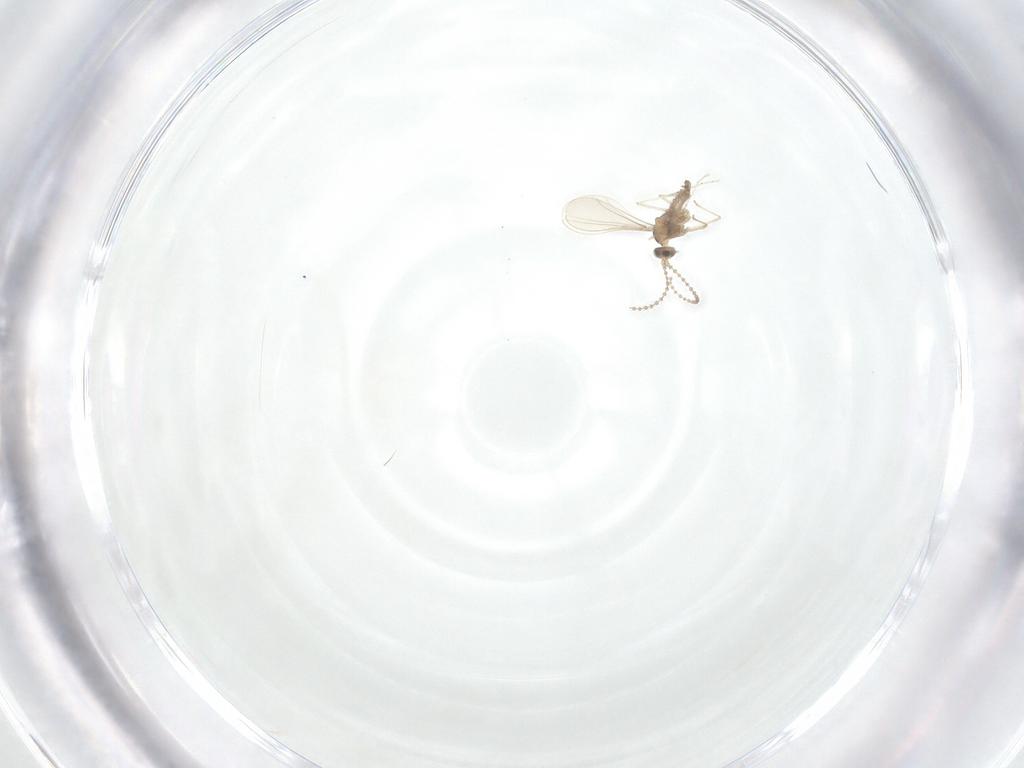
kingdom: Animalia
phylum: Arthropoda
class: Insecta
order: Diptera
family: Cecidomyiidae
